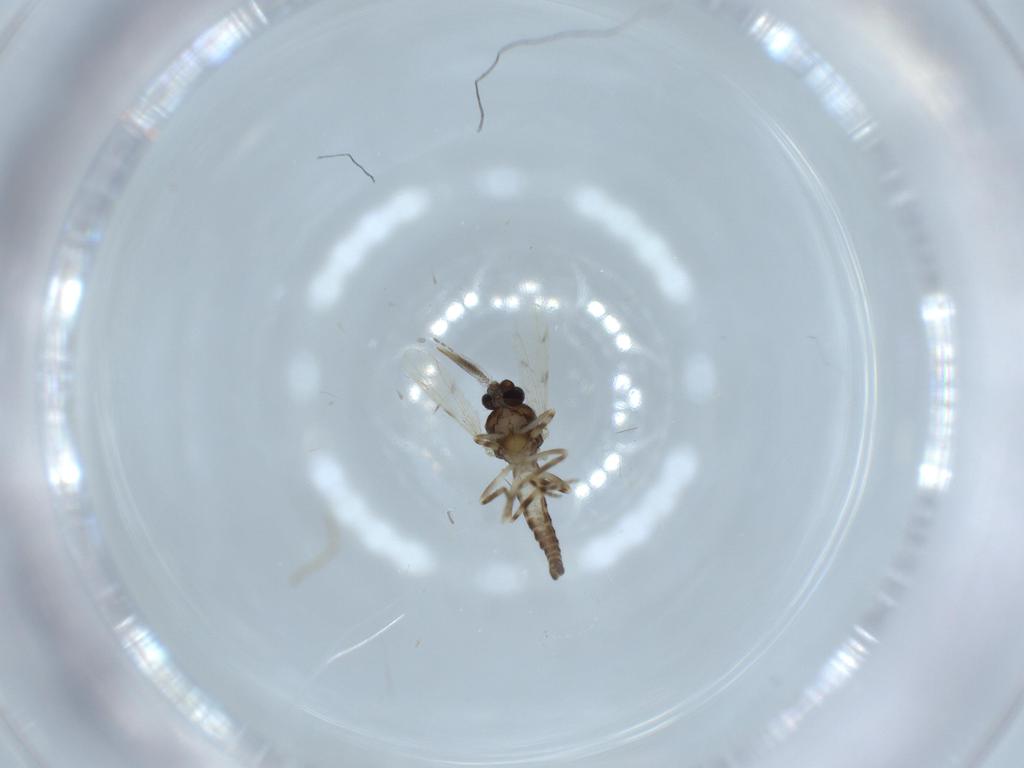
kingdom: Animalia
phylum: Arthropoda
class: Insecta
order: Diptera
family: Ceratopogonidae
